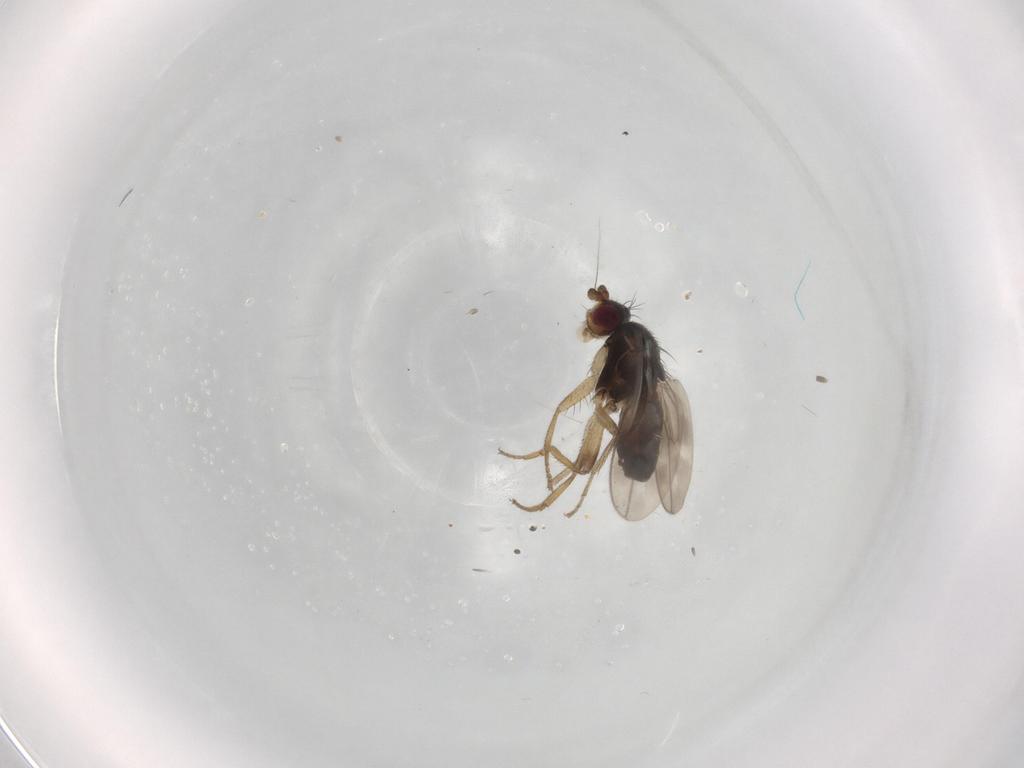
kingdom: Animalia
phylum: Arthropoda
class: Insecta
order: Diptera
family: Sphaeroceridae
